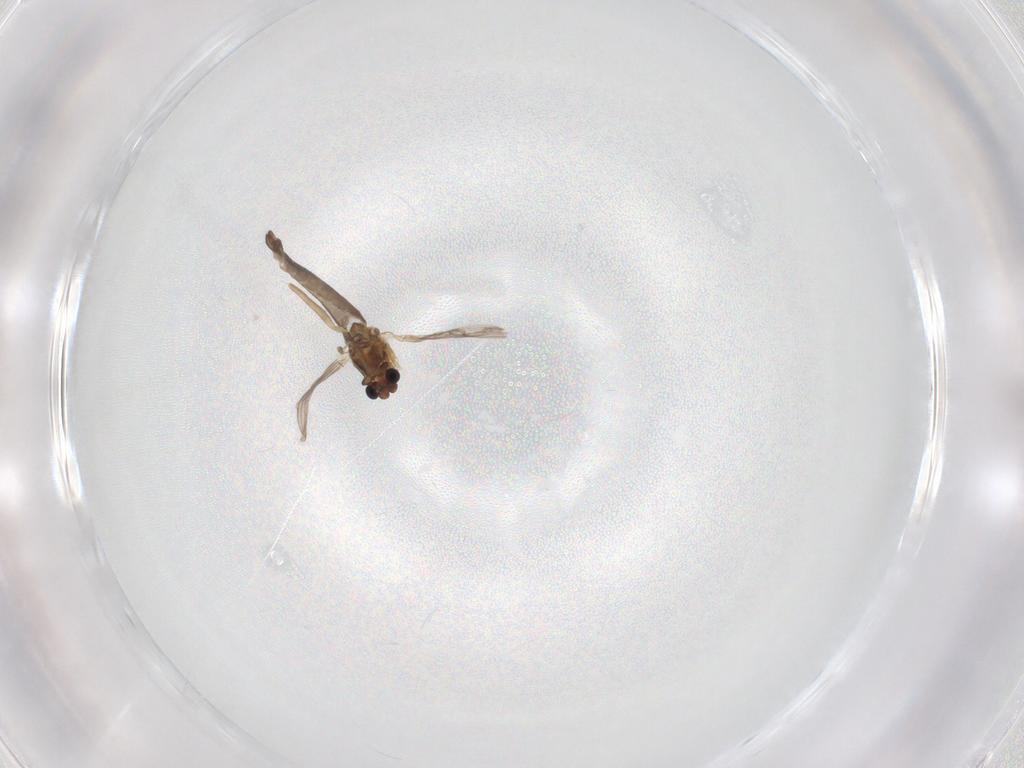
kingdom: Animalia
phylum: Arthropoda
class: Insecta
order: Diptera
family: Chironomidae
